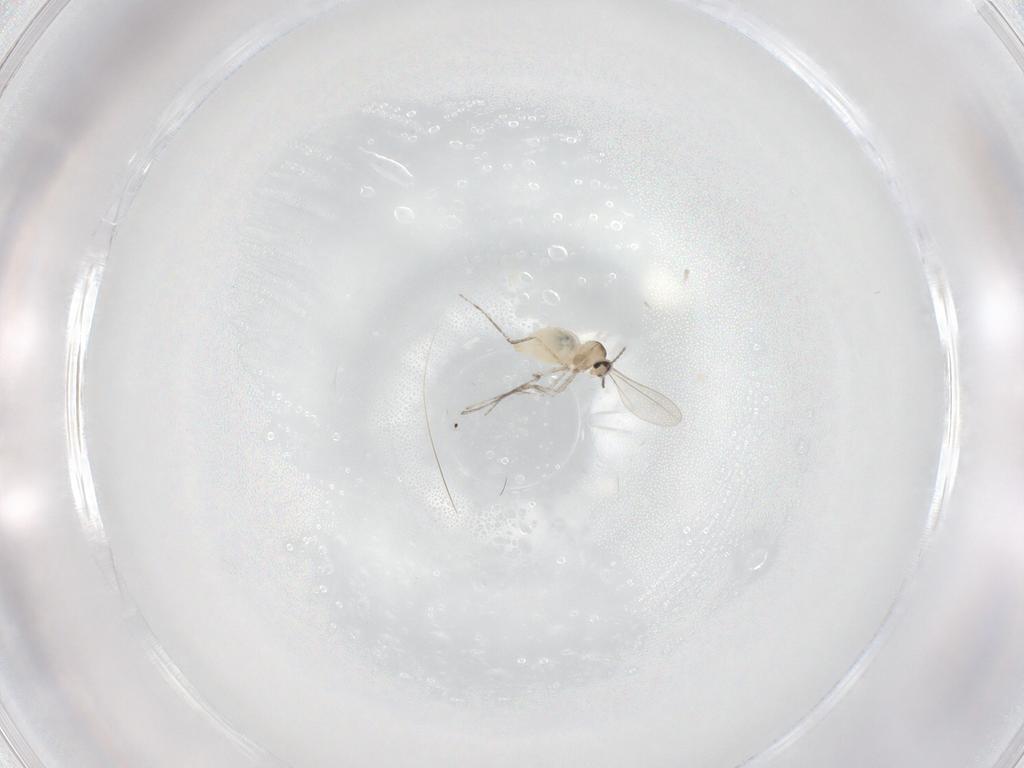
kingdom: Animalia
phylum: Arthropoda
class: Insecta
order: Diptera
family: Cecidomyiidae
